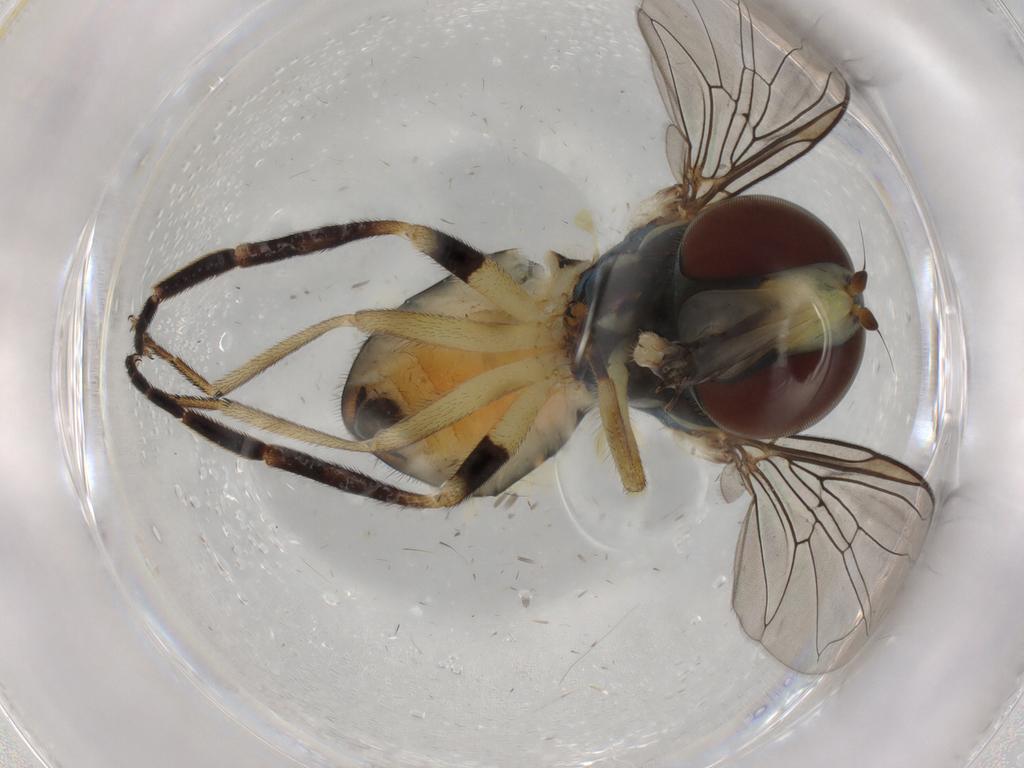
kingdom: Animalia
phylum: Arthropoda
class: Insecta
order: Diptera
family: Dolichopodidae
